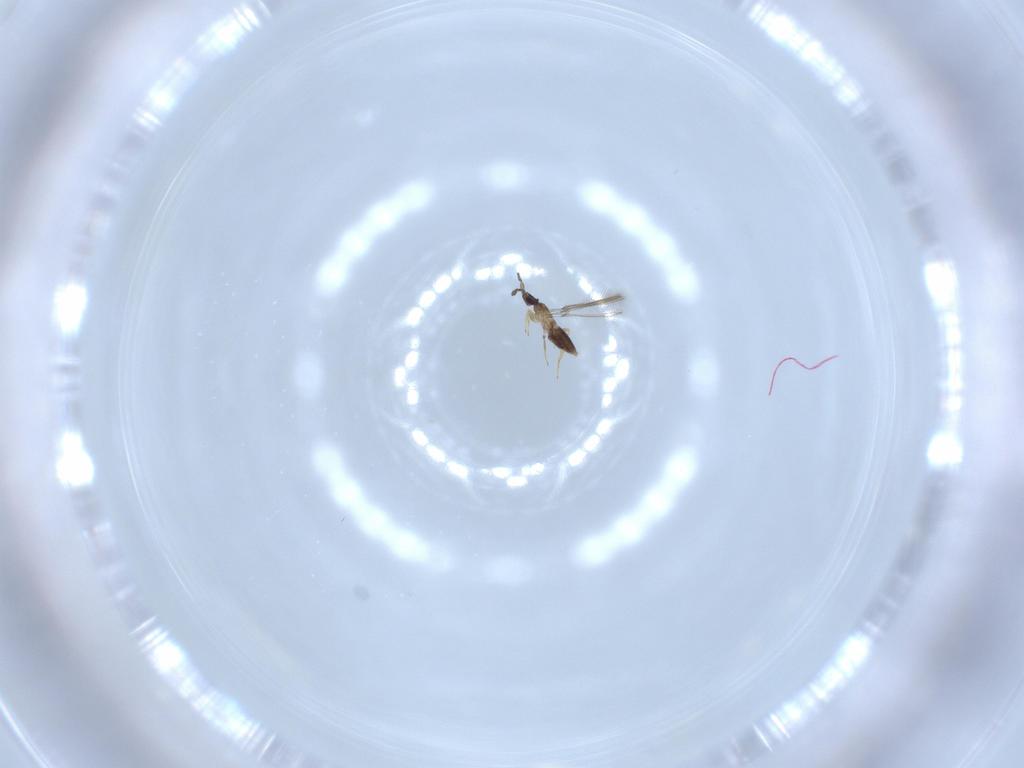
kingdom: Animalia
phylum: Arthropoda
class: Insecta
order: Hymenoptera
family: Mymaridae
